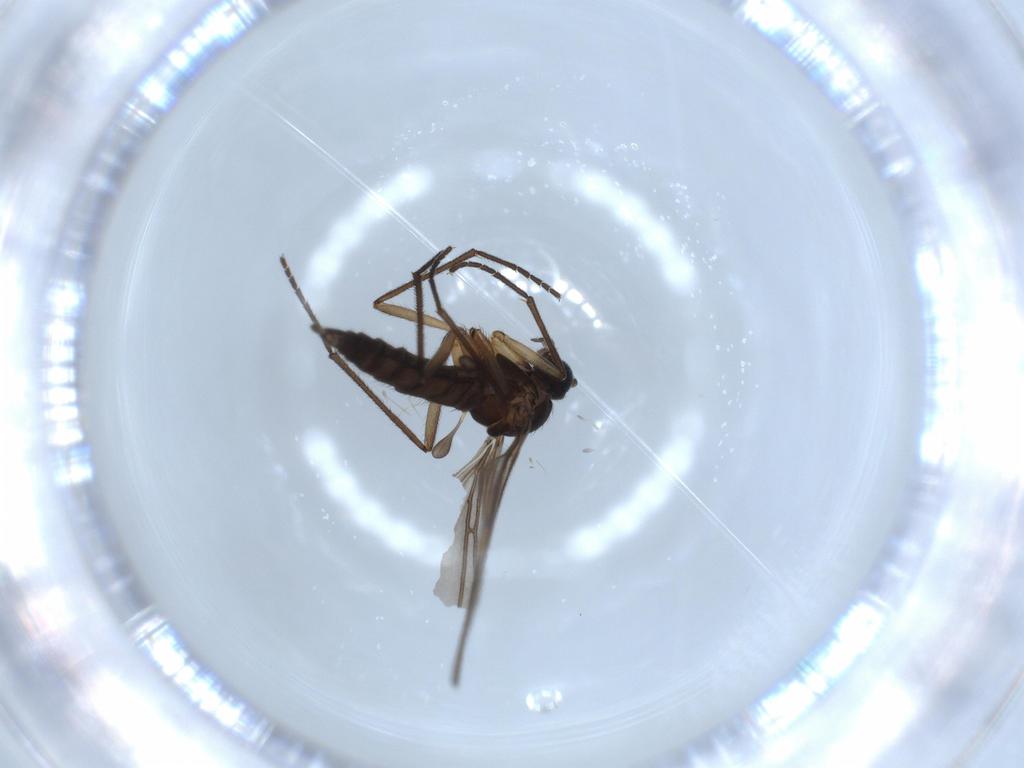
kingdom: Animalia
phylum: Arthropoda
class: Insecta
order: Diptera
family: Sciaridae
